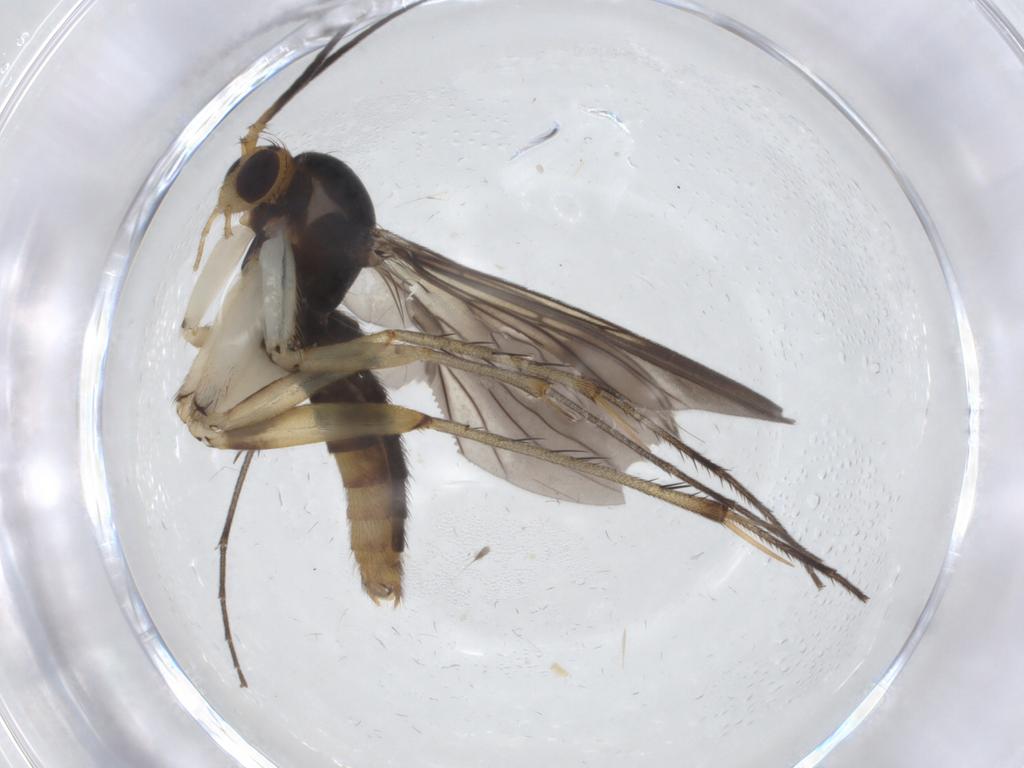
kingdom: Animalia
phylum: Arthropoda
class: Insecta
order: Diptera
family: Mycetophilidae
